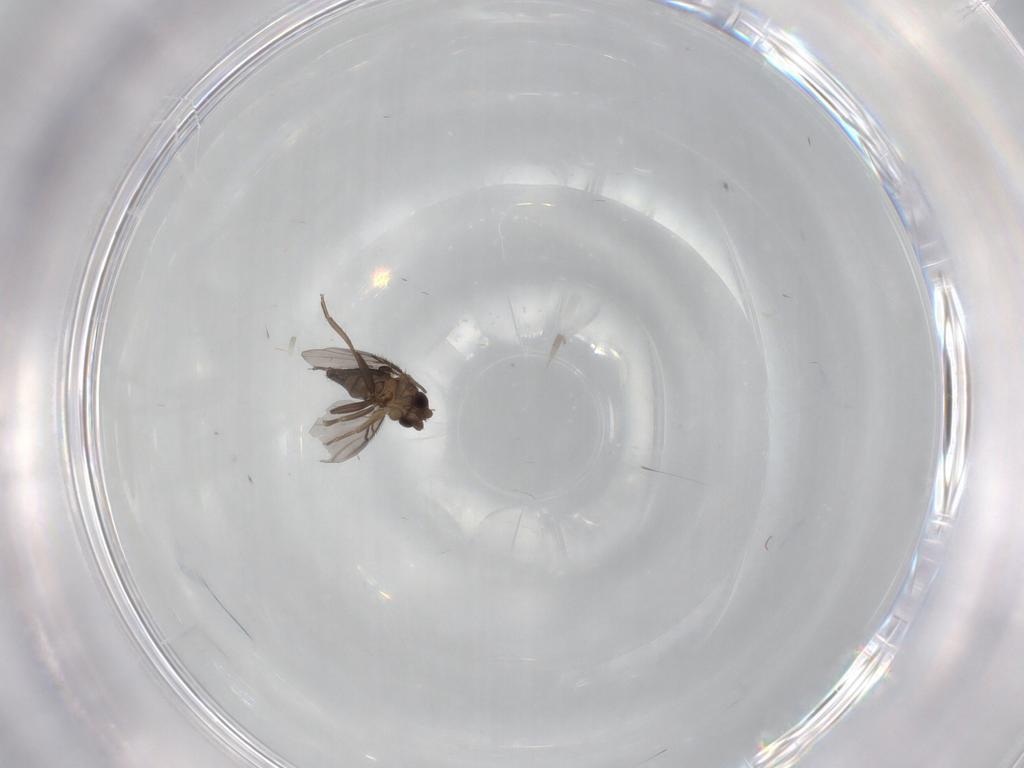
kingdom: Animalia
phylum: Arthropoda
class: Insecta
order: Diptera
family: Phoridae
